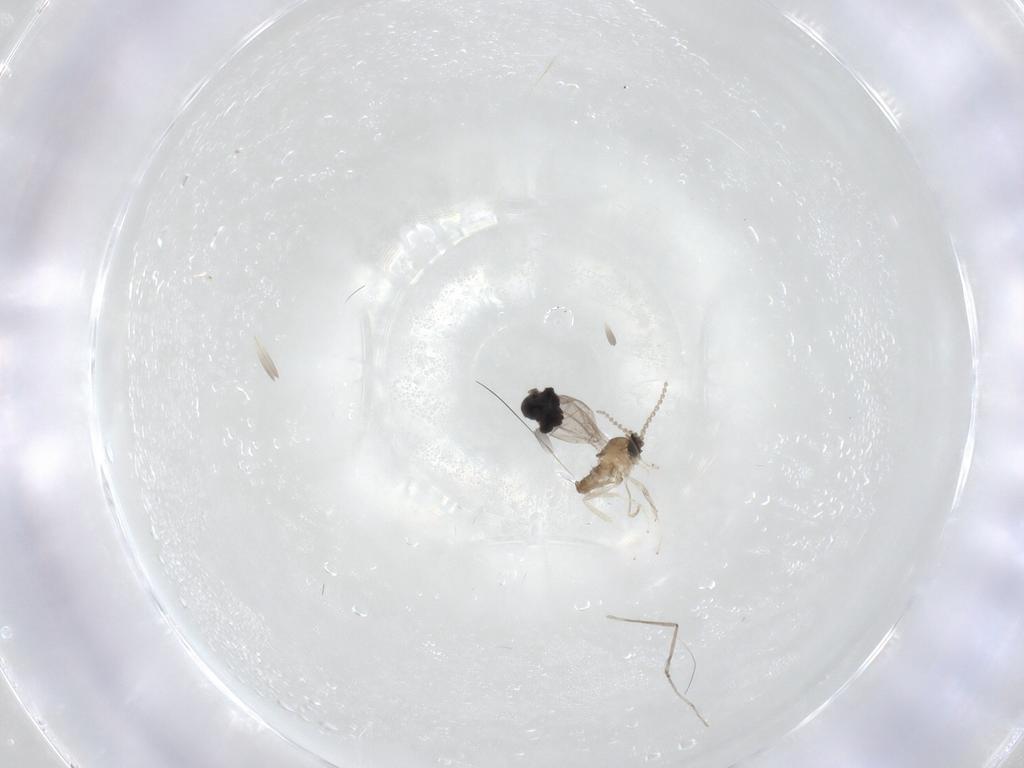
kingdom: Animalia
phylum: Arthropoda
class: Insecta
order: Diptera
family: Cecidomyiidae
